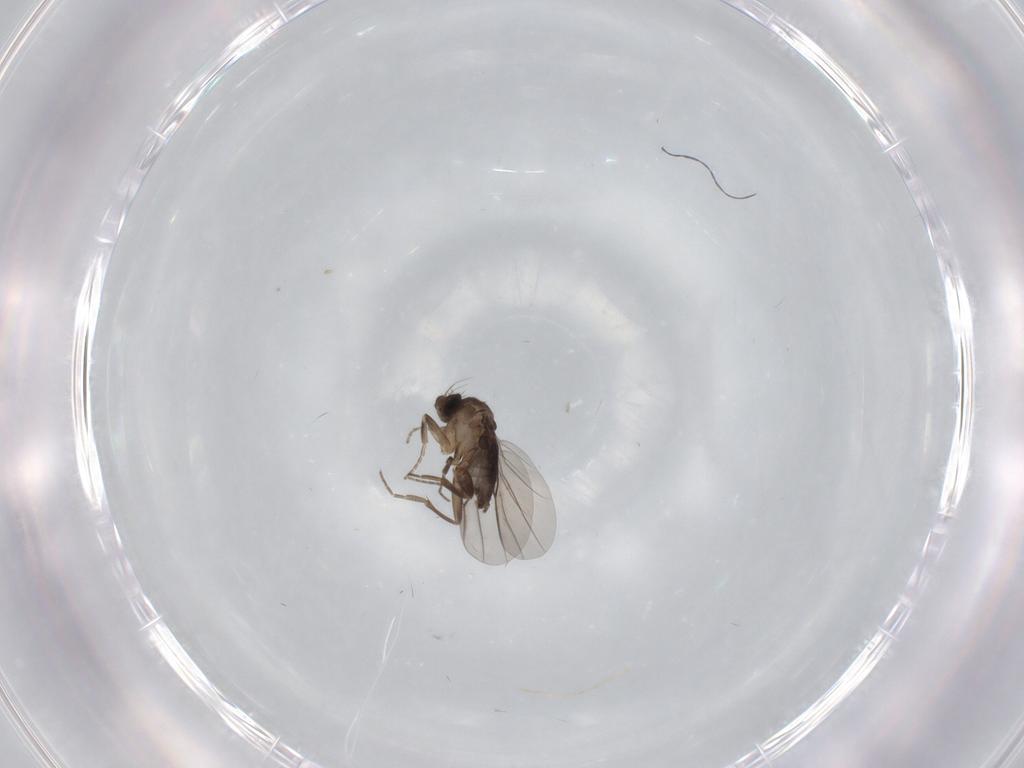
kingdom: Animalia
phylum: Arthropoda
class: Insecta
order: Diptera
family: Phoridae
